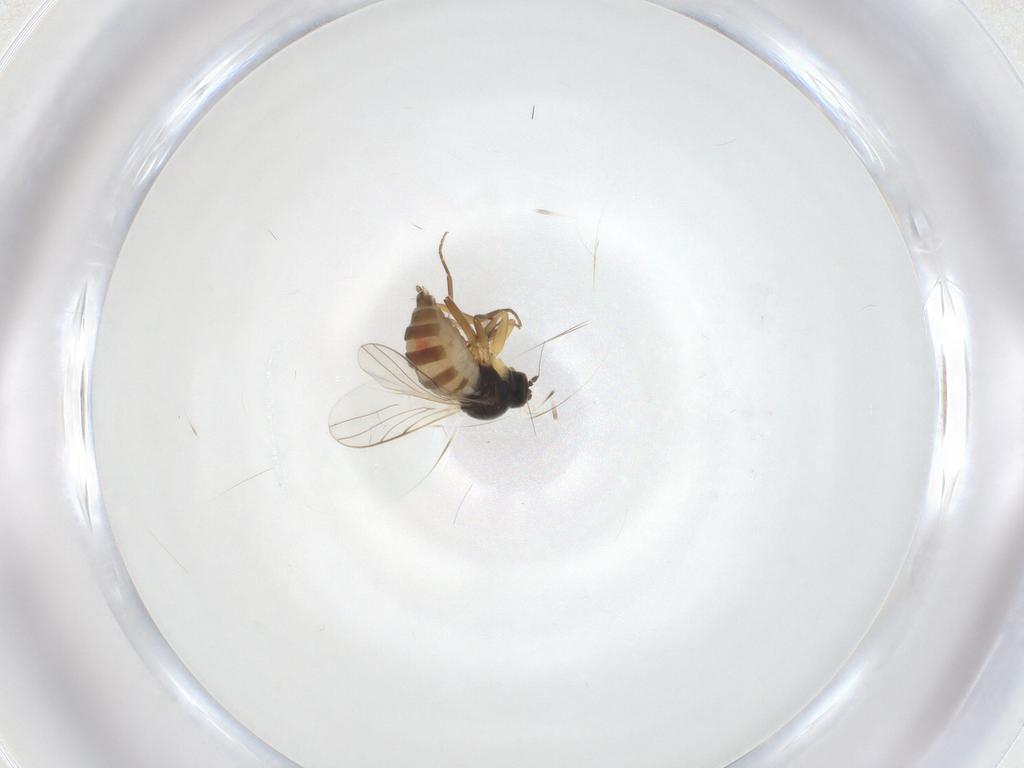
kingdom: Animalia
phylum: Arthropoda
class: Insecta
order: Diptera
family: Hybotidae
